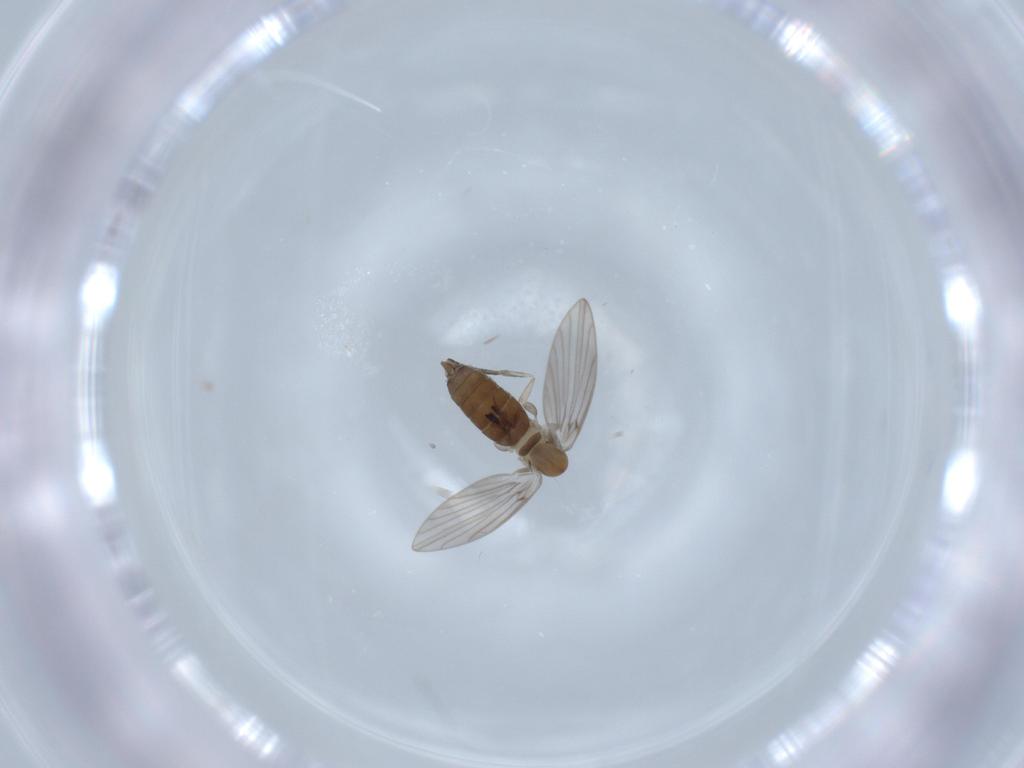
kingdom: Animalia
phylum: Arthropoda
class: Insecta
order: Diptera
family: Psychodidae
